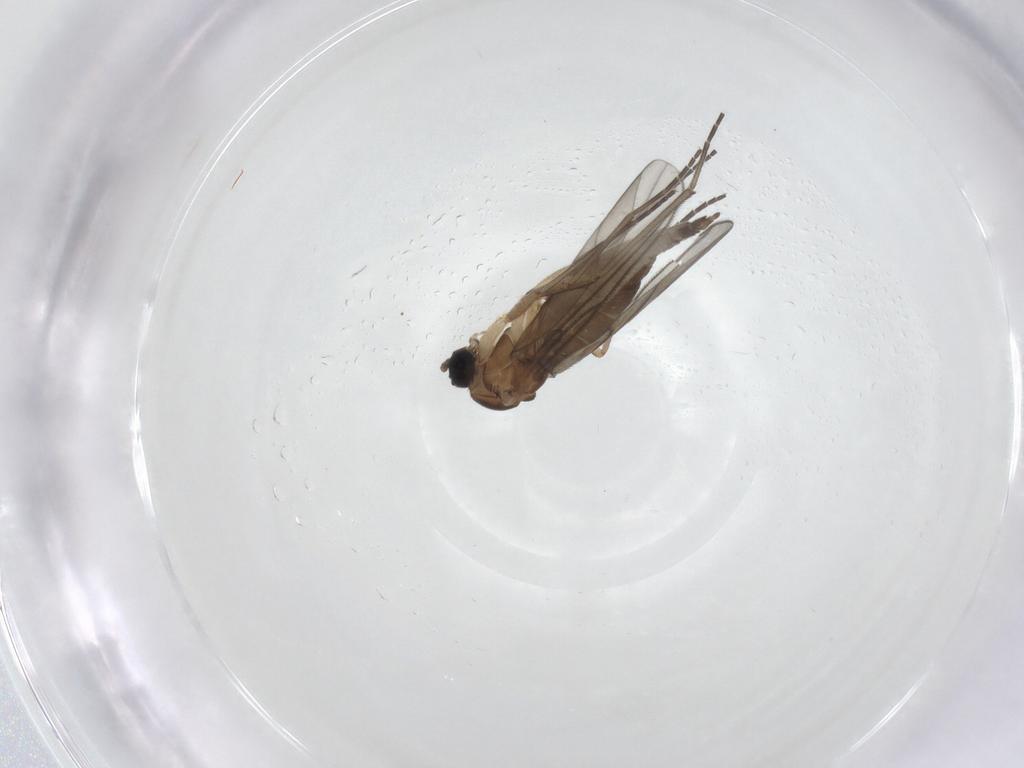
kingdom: Animalia
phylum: Arthropoda
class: Insecta
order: Diptera
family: Sciaridae
